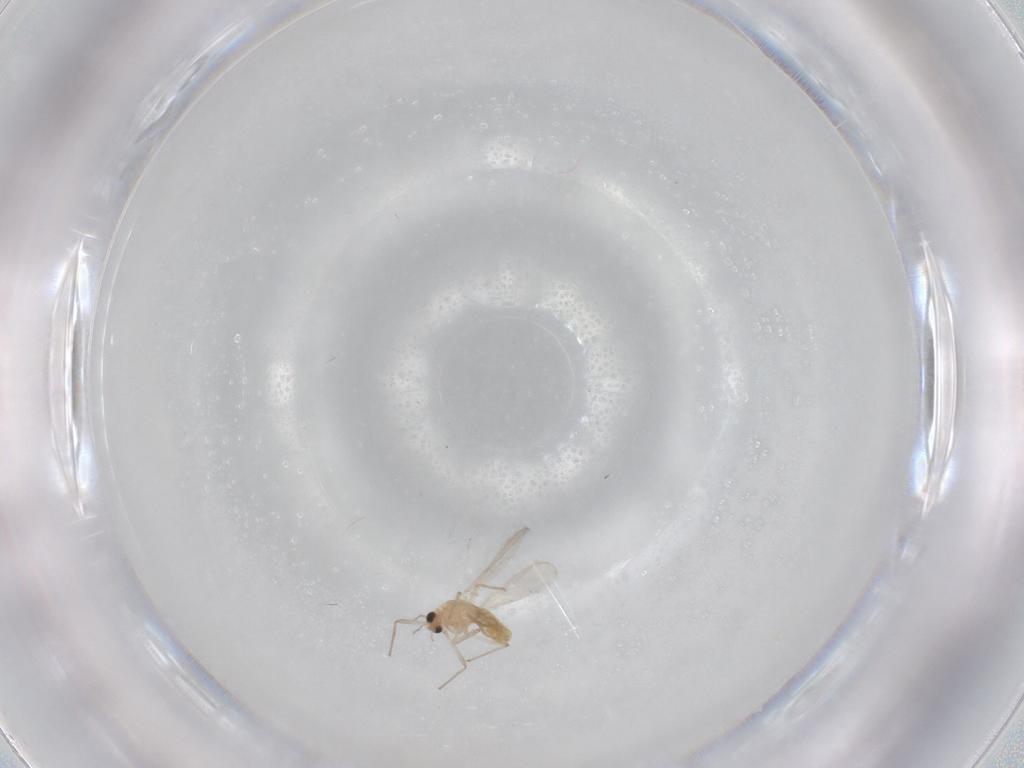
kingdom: Animalia
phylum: Arthropoda
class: Insecta
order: Diptera
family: Chironomidae
